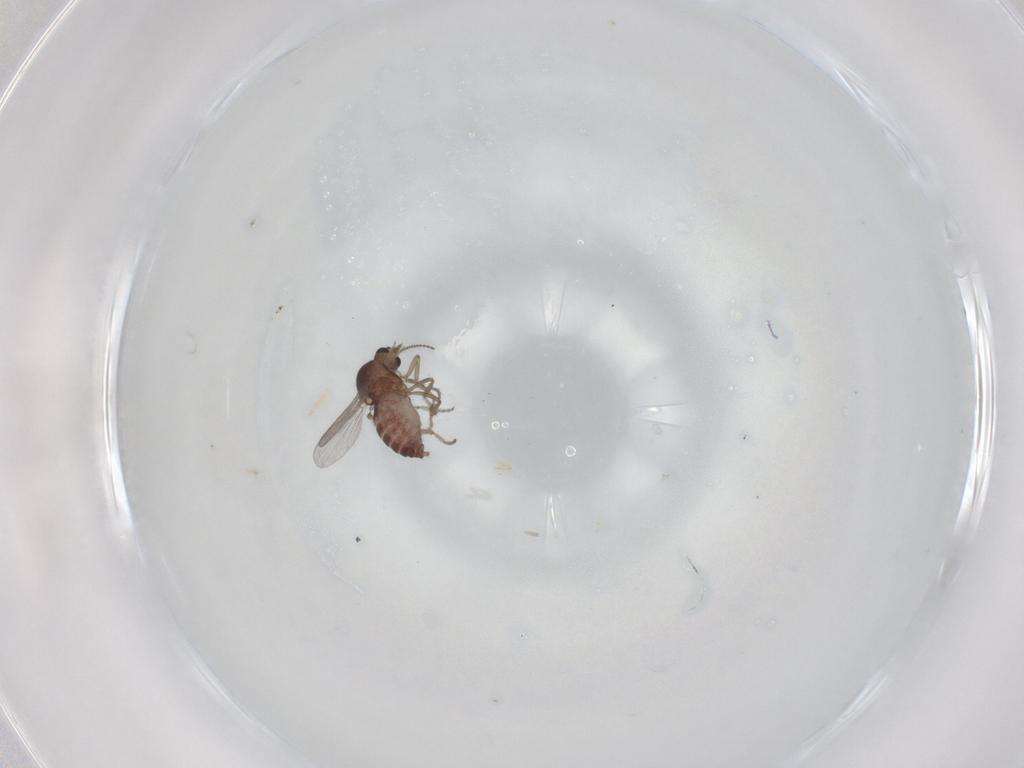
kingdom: Animalia
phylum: Arthropoda
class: Insecta
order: Diptera
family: Ceratopogonidae
